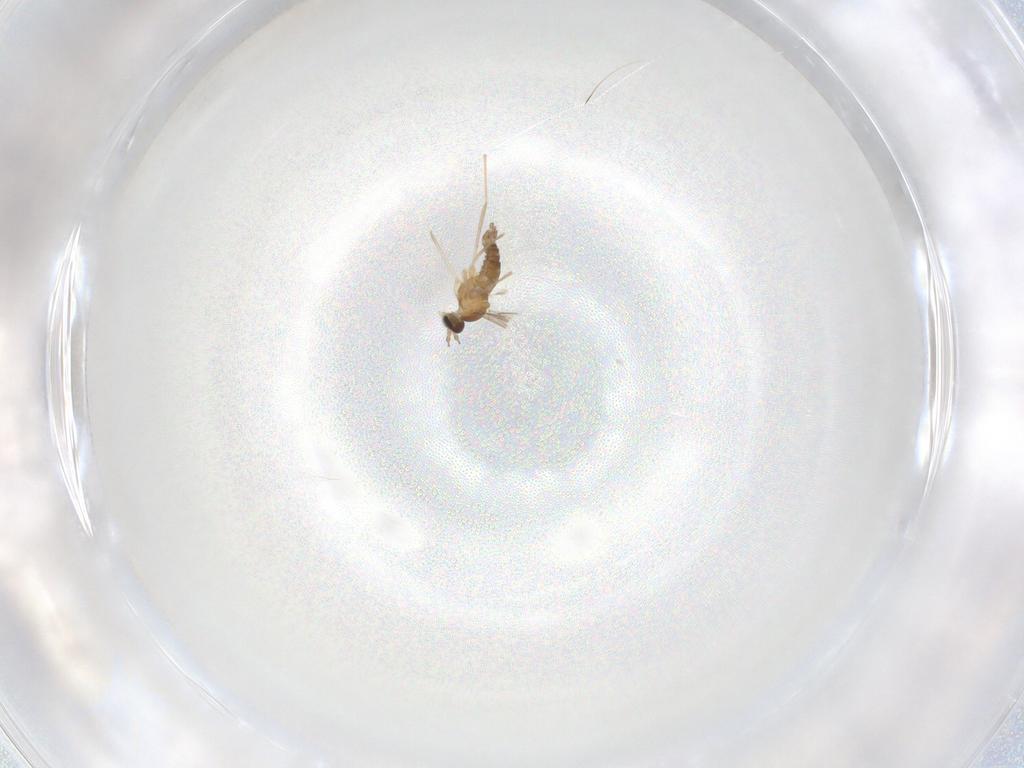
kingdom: Animalia
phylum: Arthropoda
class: Insecta
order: Diptera
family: Cecidomyiidae
